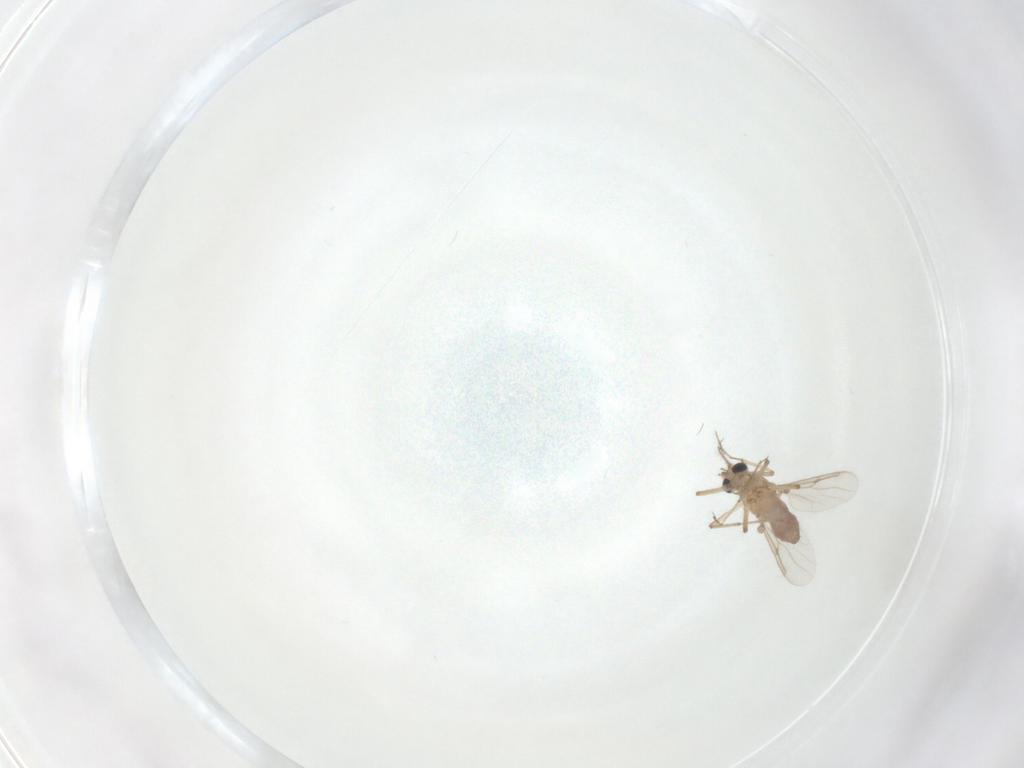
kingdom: Animalia
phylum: Arthropoda
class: Insecta
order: Diptera
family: Ceratopogonidae
